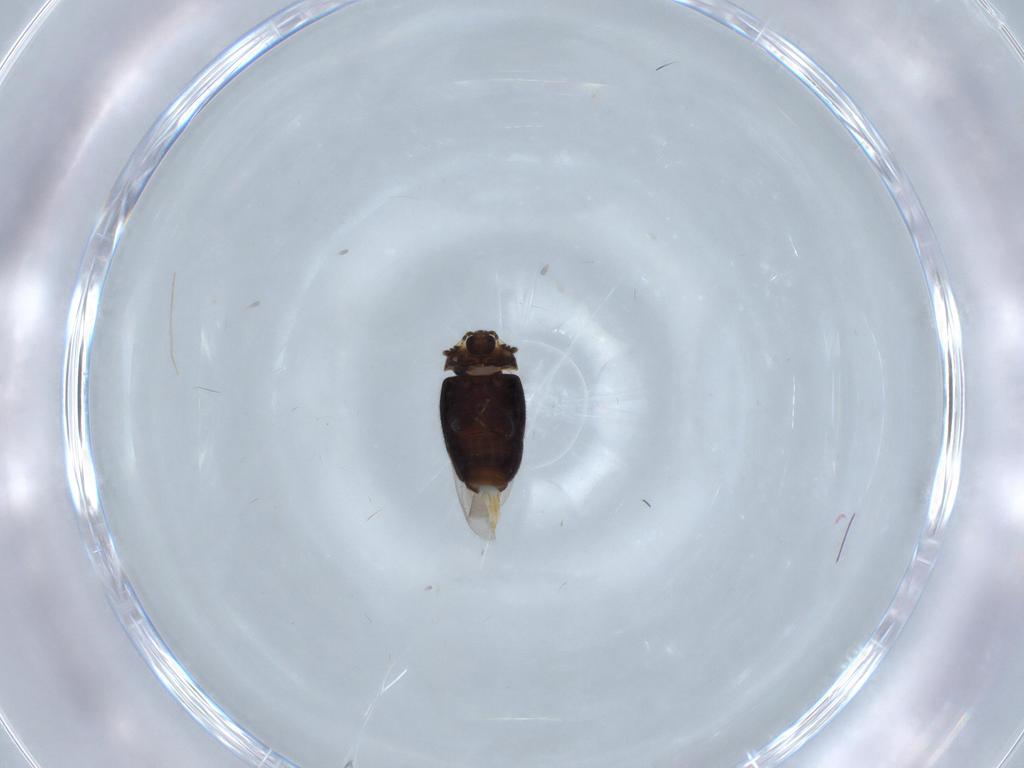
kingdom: Animalia
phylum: Arthropoda
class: Insecta
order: Coleoptera
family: Corylophidae
